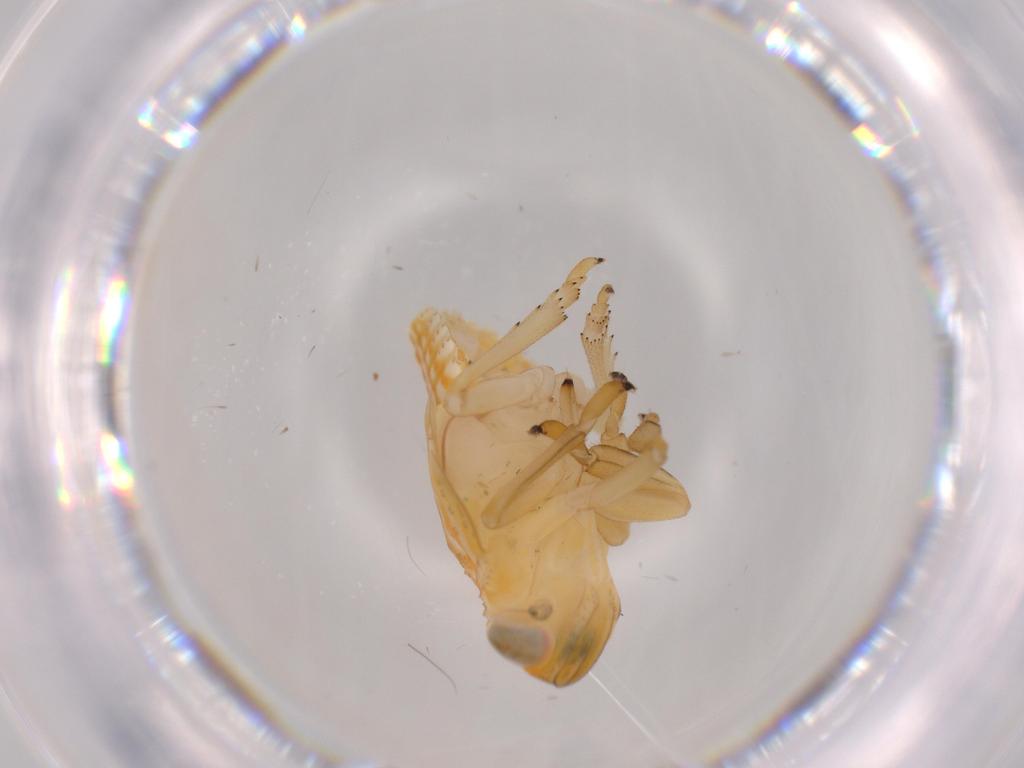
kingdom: Animalia
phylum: Arthropoda
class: Insecta
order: Hemiptera
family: Issidae
